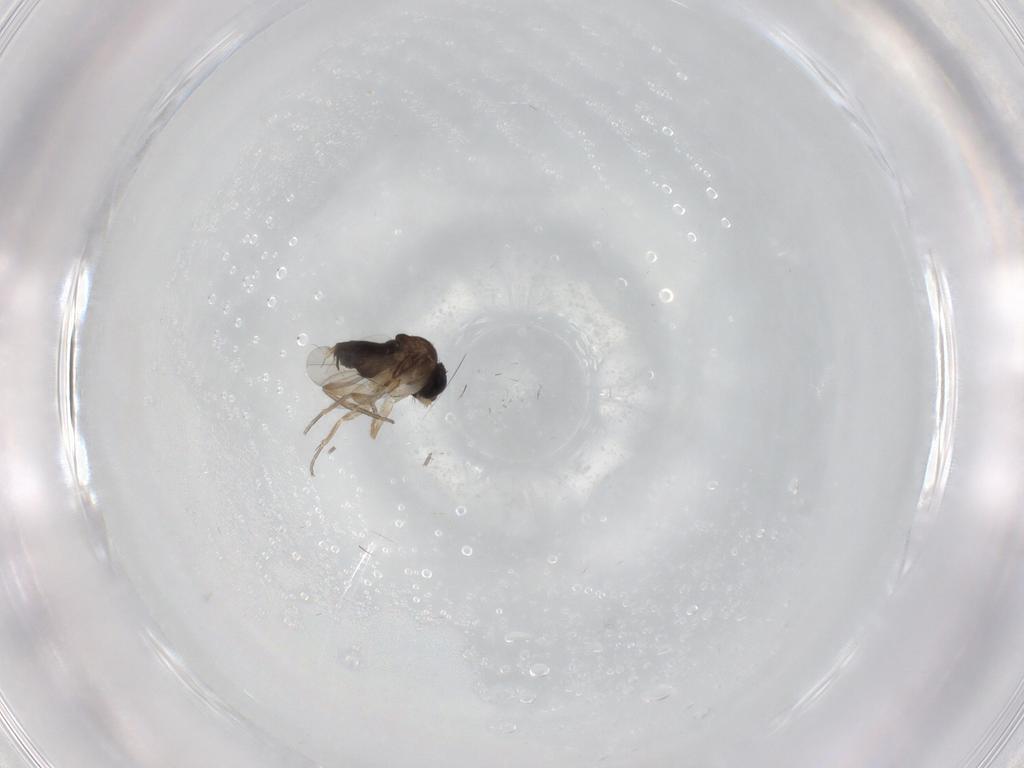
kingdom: Animalia
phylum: Arthropoda
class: Insecta
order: Diptera
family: Phoridae
